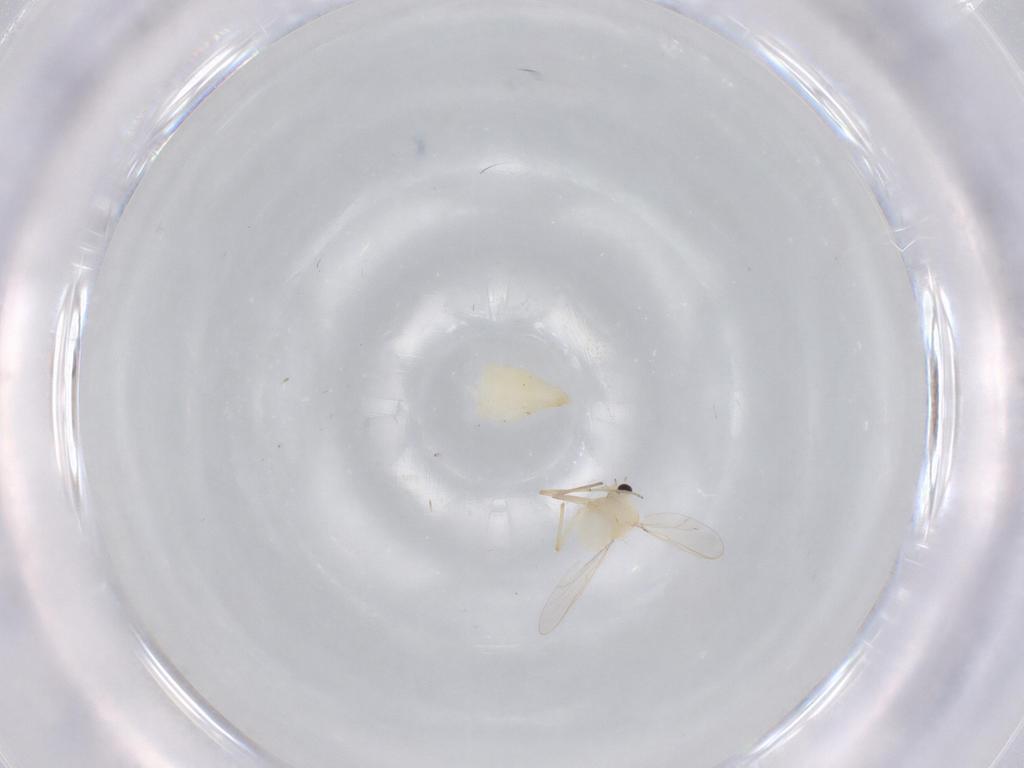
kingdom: Animalia
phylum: Arthropoda
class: Insecta
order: Diptera
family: Chironomidae
